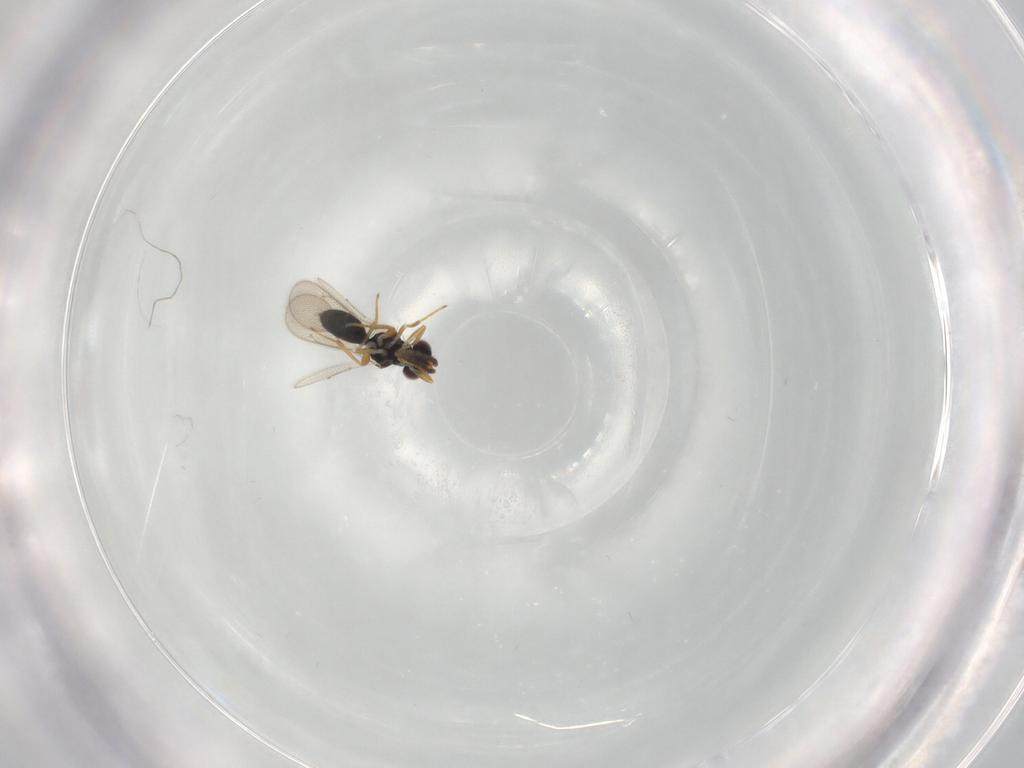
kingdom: Animalia
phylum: Arthropoda
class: Insecta
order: Hymenoptera
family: Eulophidae
